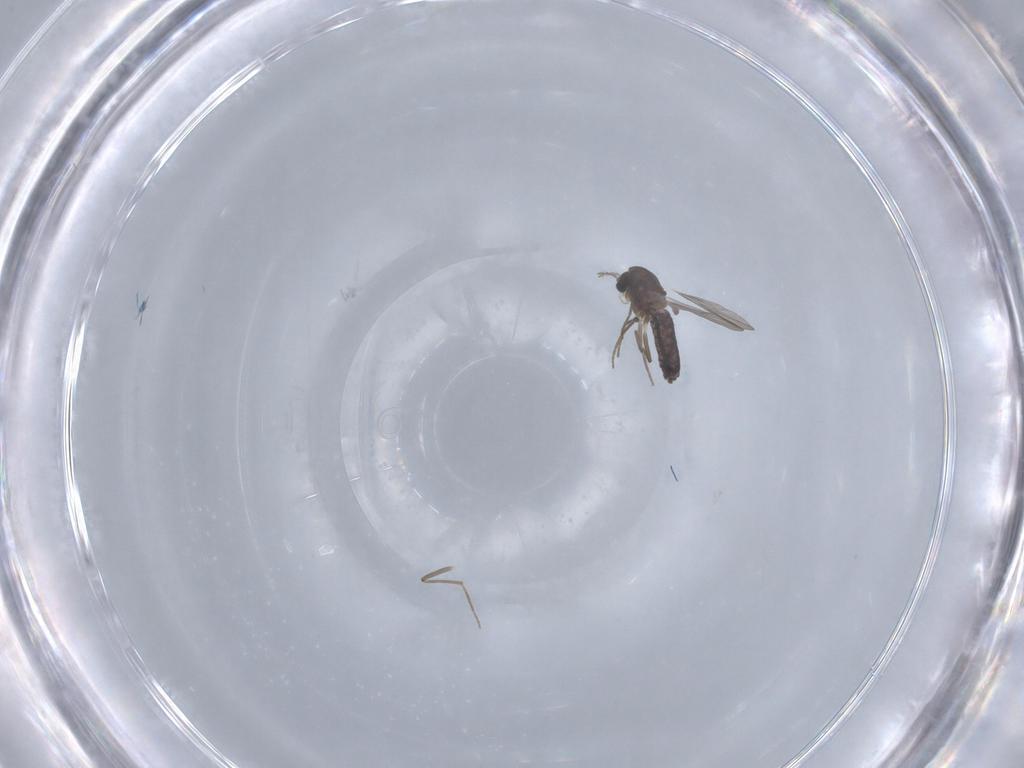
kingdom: Animalia
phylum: Arthropoda
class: Insecta
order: Diptera
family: Chironomidae
